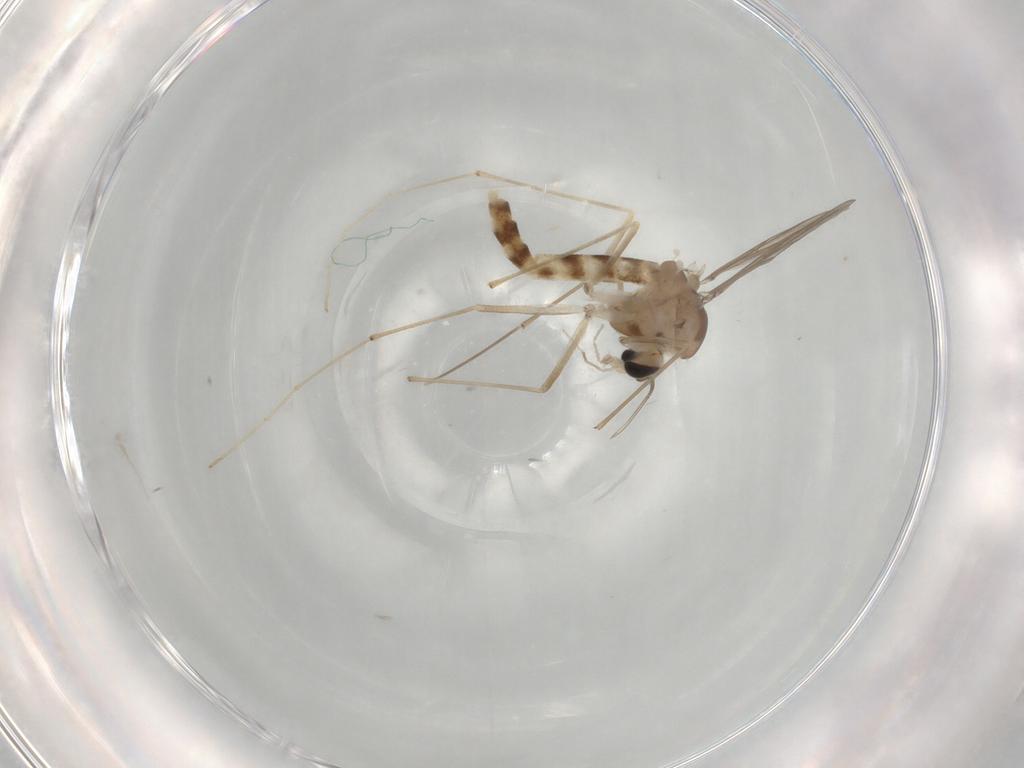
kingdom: Animalia
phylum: Arthropoda
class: Insecta
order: Diptera
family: Chironomidae
